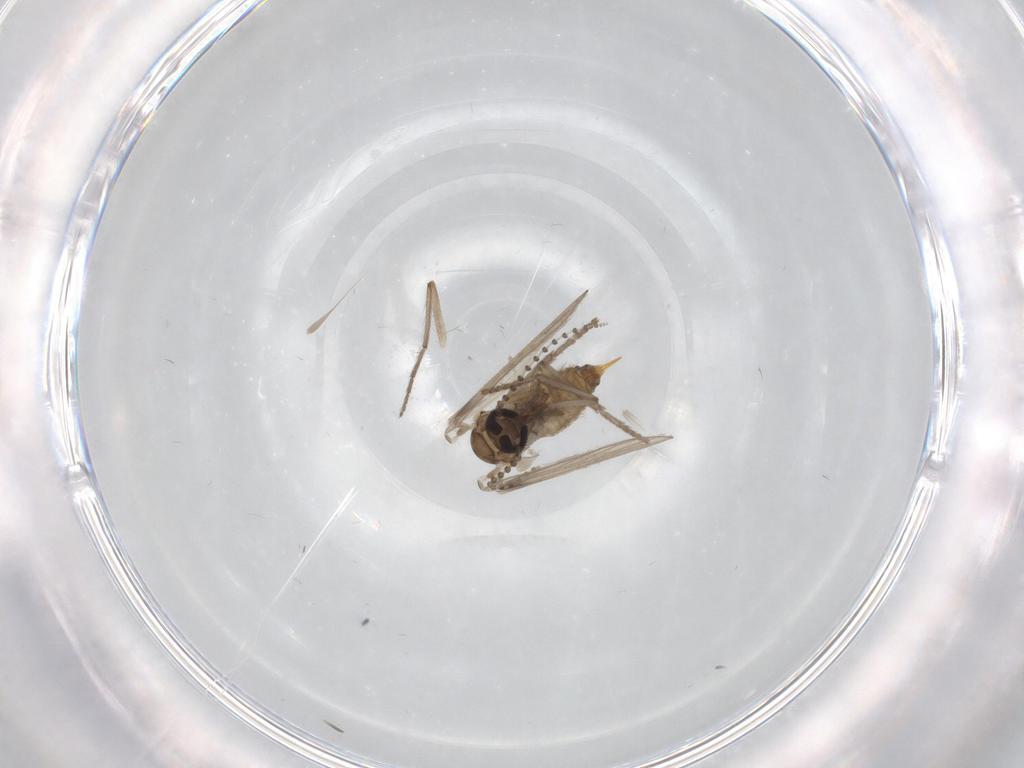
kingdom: Animalia
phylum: Arthropoda
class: Insecta
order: Diptera
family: Psychodidae
